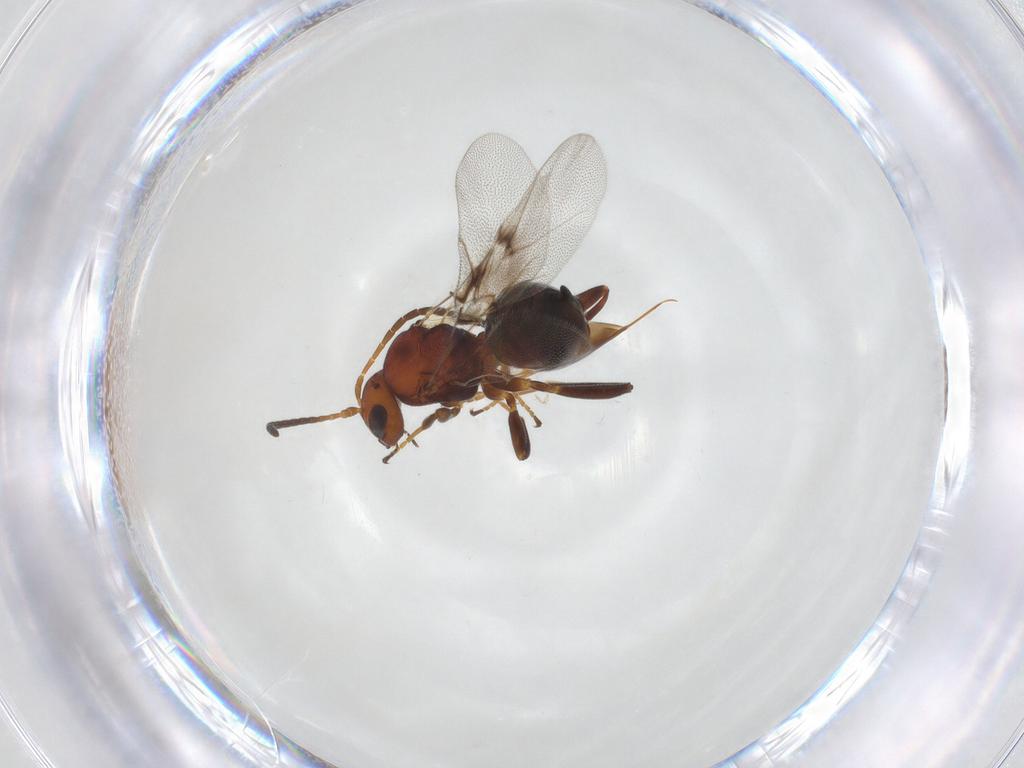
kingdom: Animalia
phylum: Arthropoda
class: Insecta
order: Hymenoptera
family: Cynipidae
